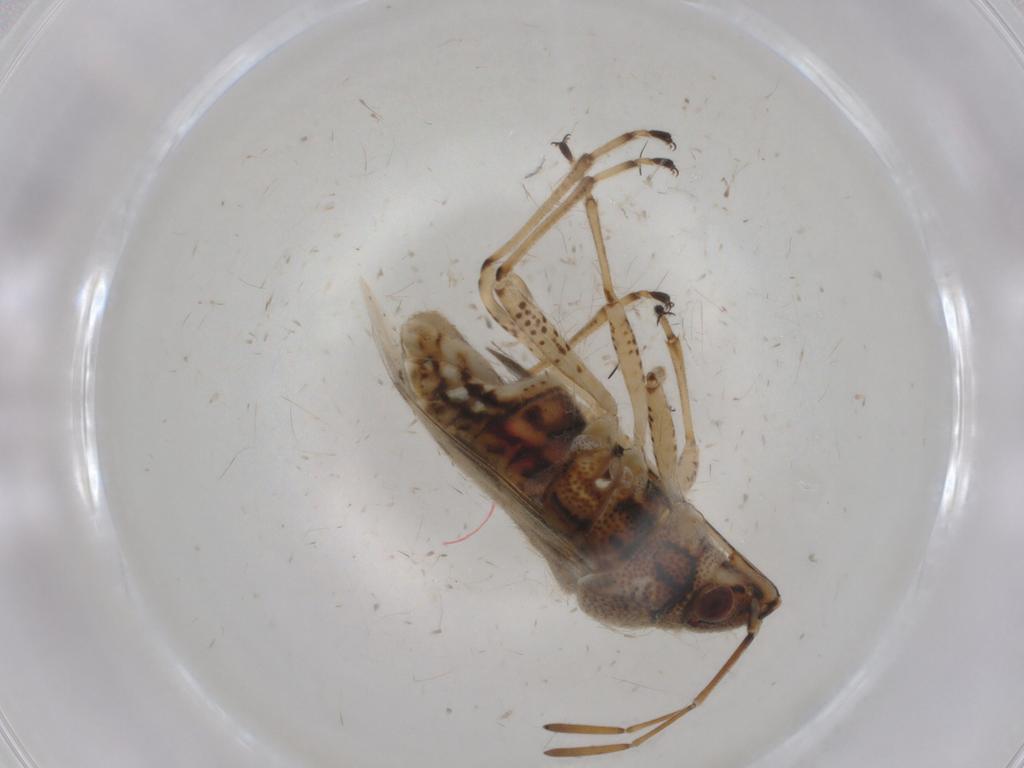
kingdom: Animalia
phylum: Arthropoda
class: Insecta
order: Hemiptera
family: Lygaeidae
